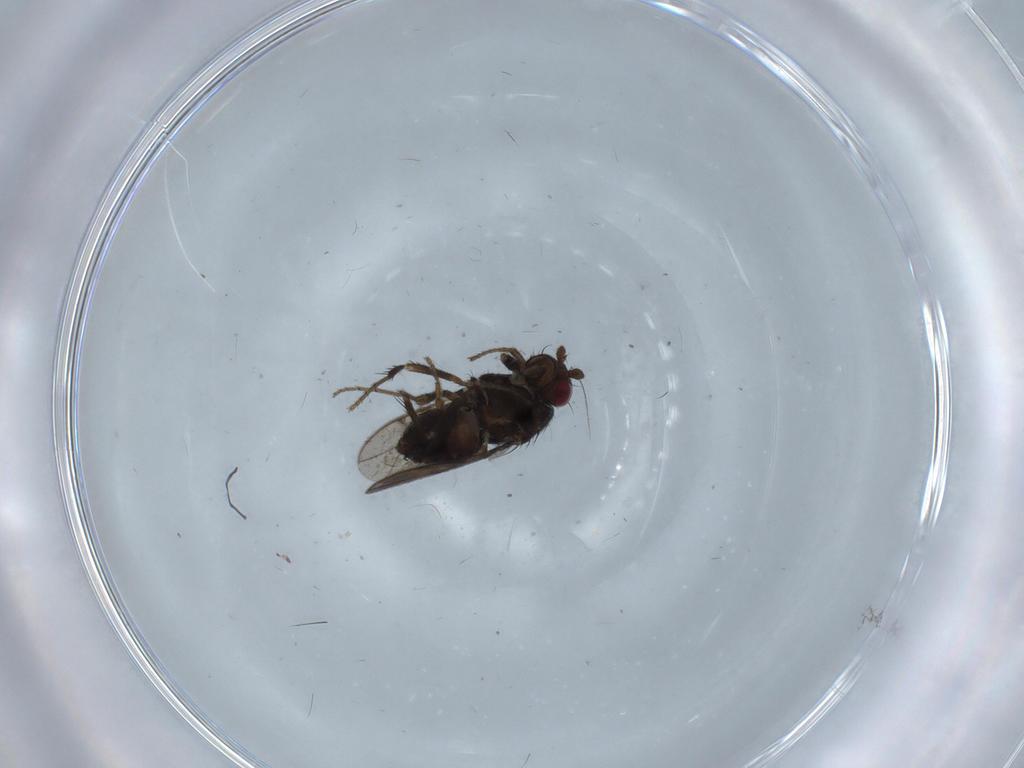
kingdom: Animalia
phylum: Arthropoda
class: Insecta
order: Diptera
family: Sphaeroceridae
